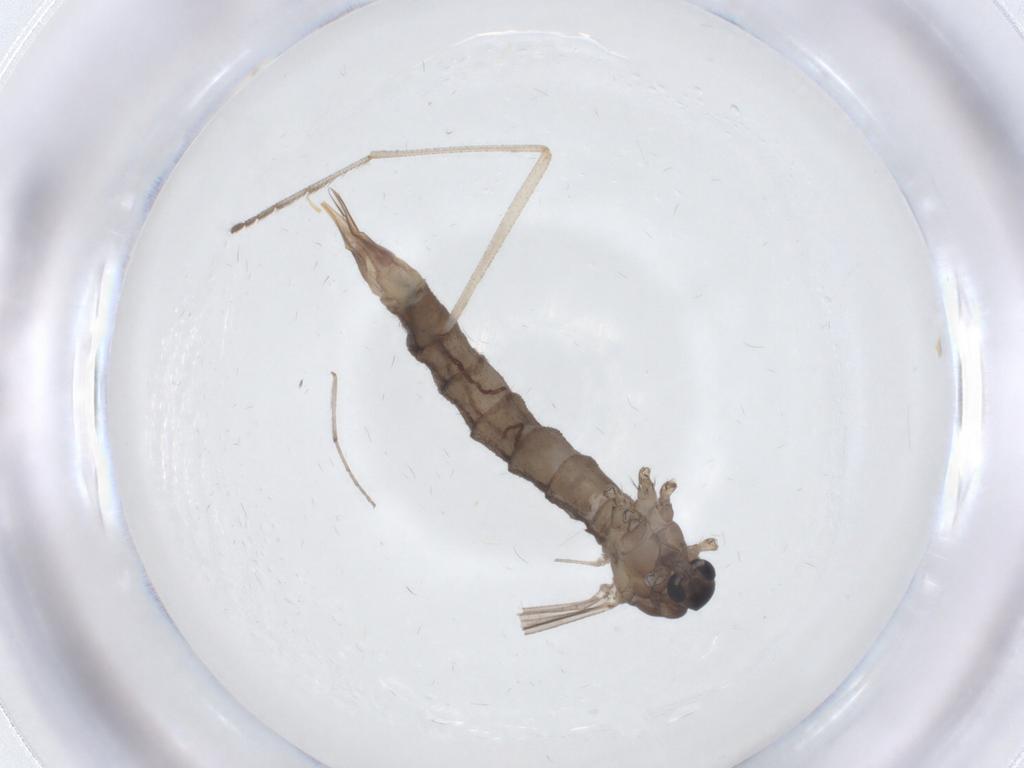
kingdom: Animalia
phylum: Arthropoda
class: Insecta
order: Diptera
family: Limoniidae
